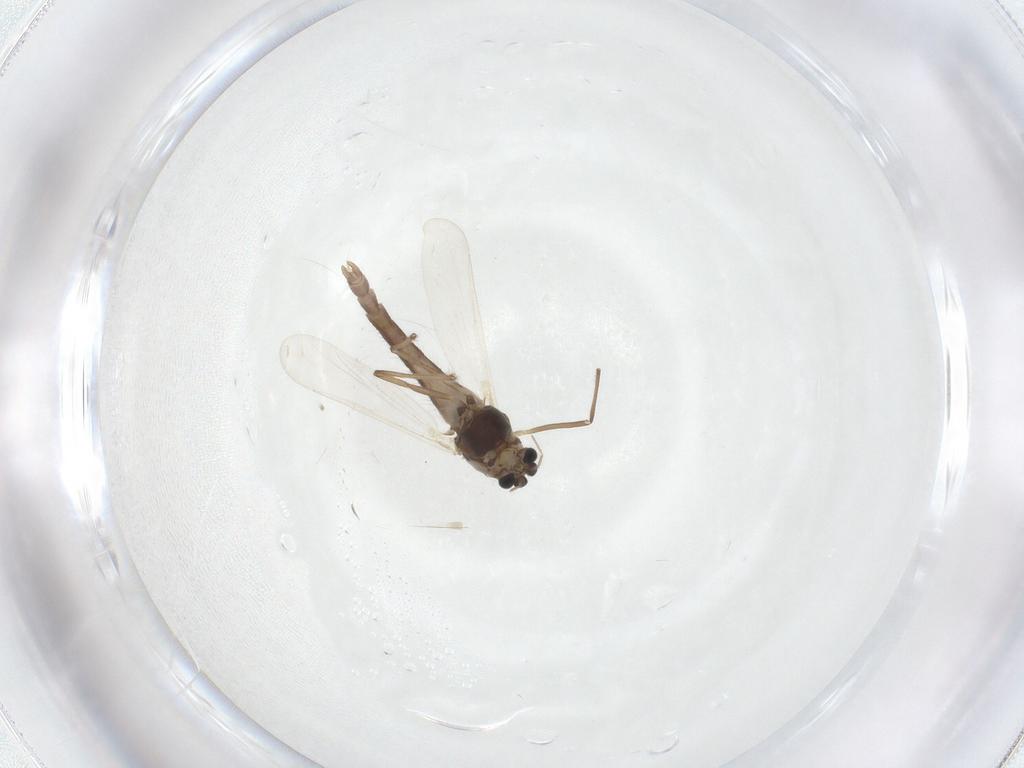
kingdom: Animalia
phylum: Arthropoda
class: Insecta
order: Diptera
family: Chironomidae
